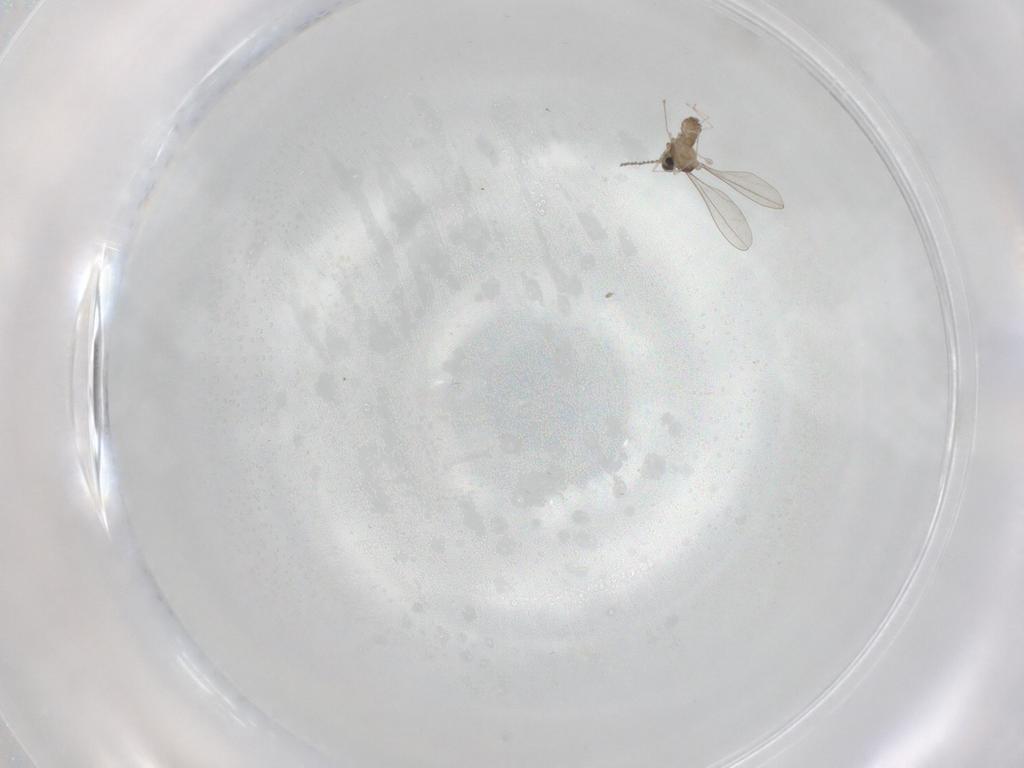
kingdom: Animalia
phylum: Arthropoda
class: Insecta
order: Diptera
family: Cecidomyiidae
